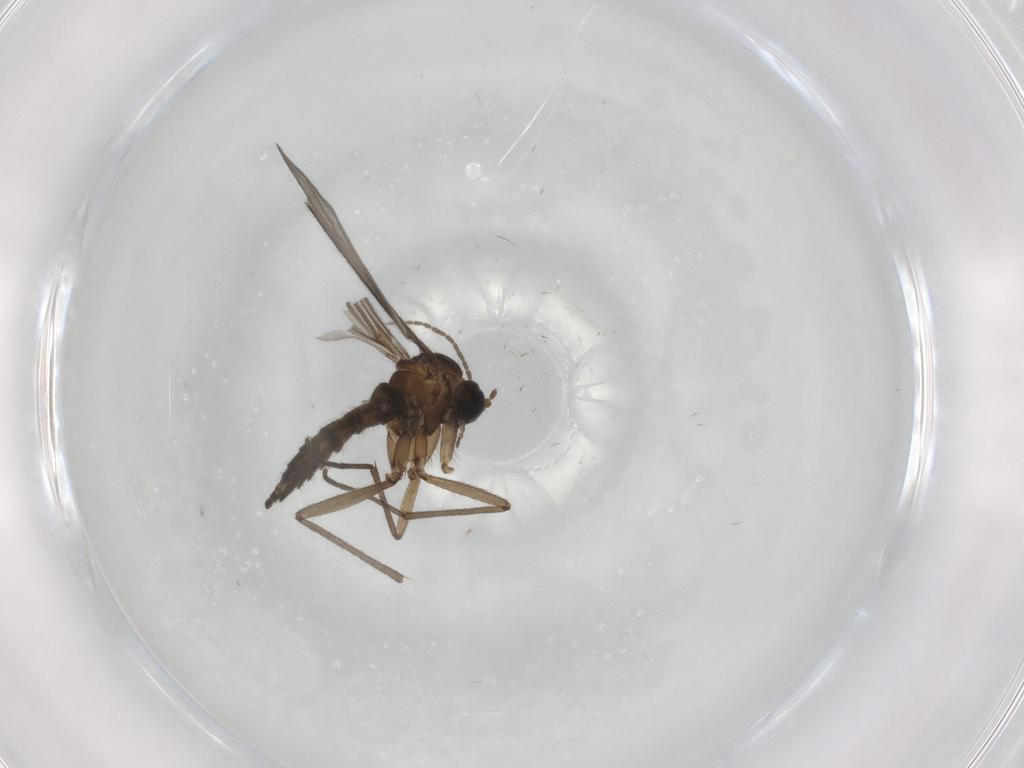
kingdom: Animalia
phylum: Arthropoda
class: Insecta
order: Diptera
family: Sciaridae
